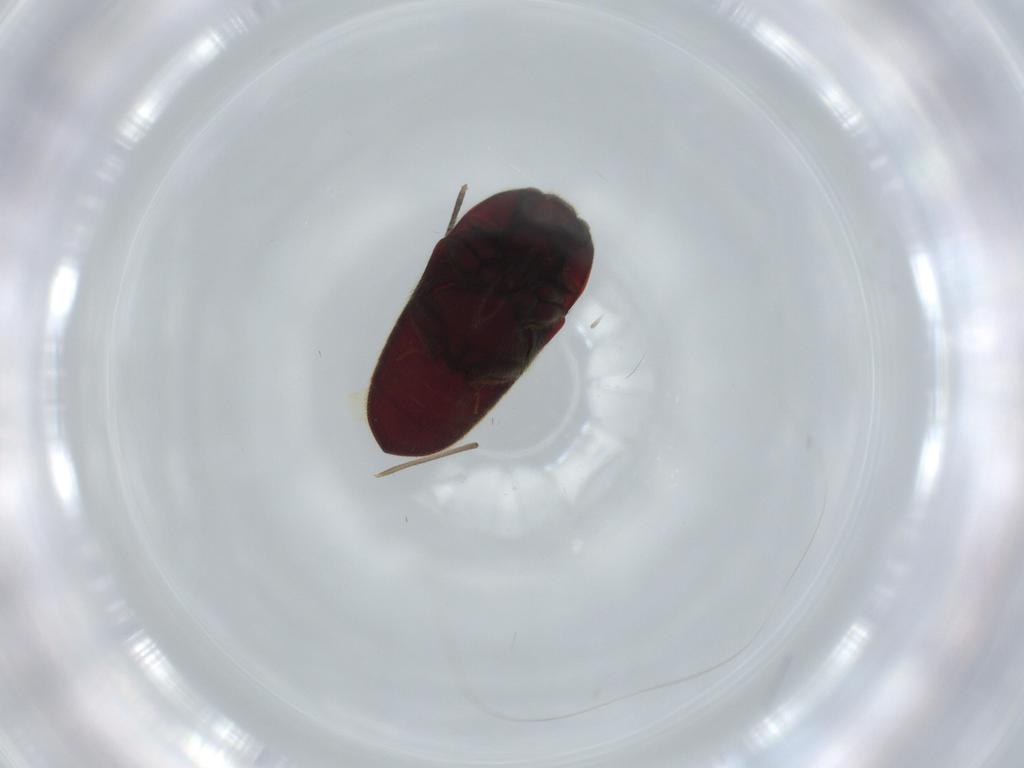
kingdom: Animalia
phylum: Arthropoda
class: Insecta
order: Coleoptera
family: Throscidae
